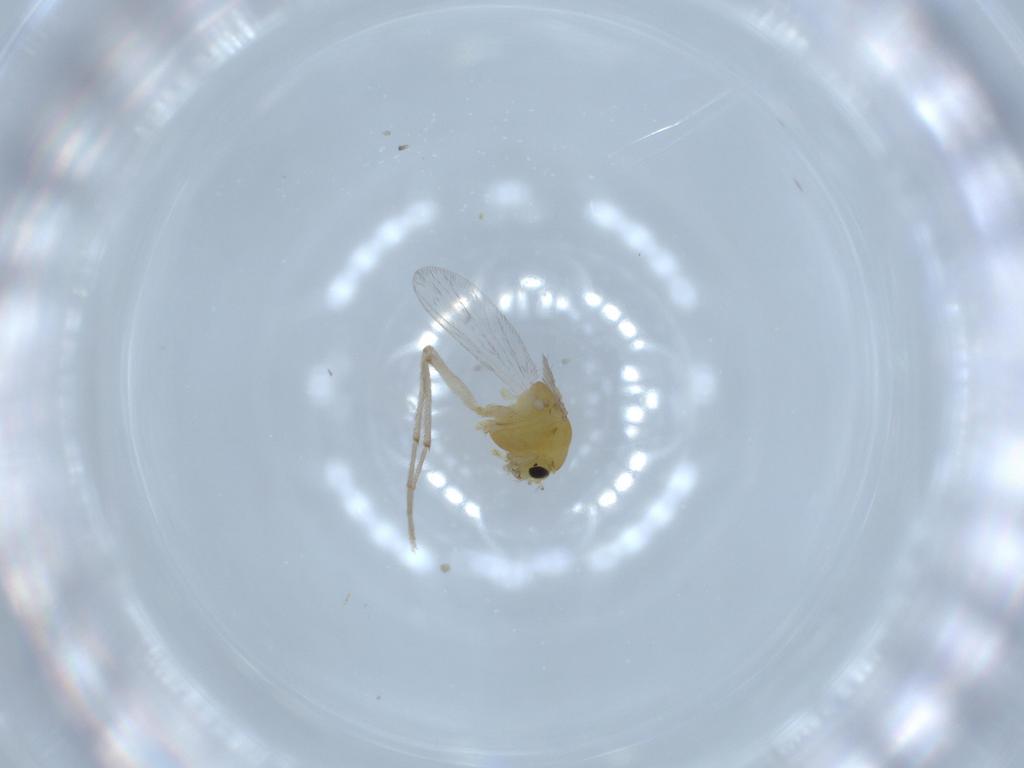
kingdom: Animalia
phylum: Arthropoda
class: Insecta
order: Diptera
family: Chironomidae
